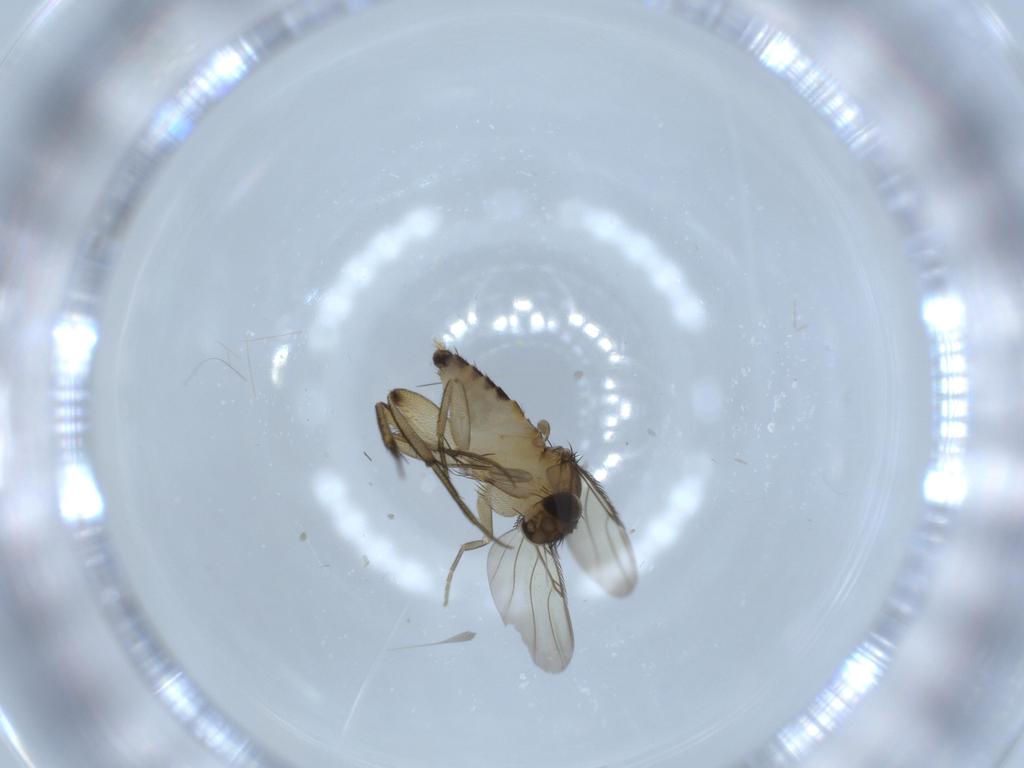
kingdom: Animalia
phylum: Arthropoda
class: Insecta
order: Diptera
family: Phoridae
